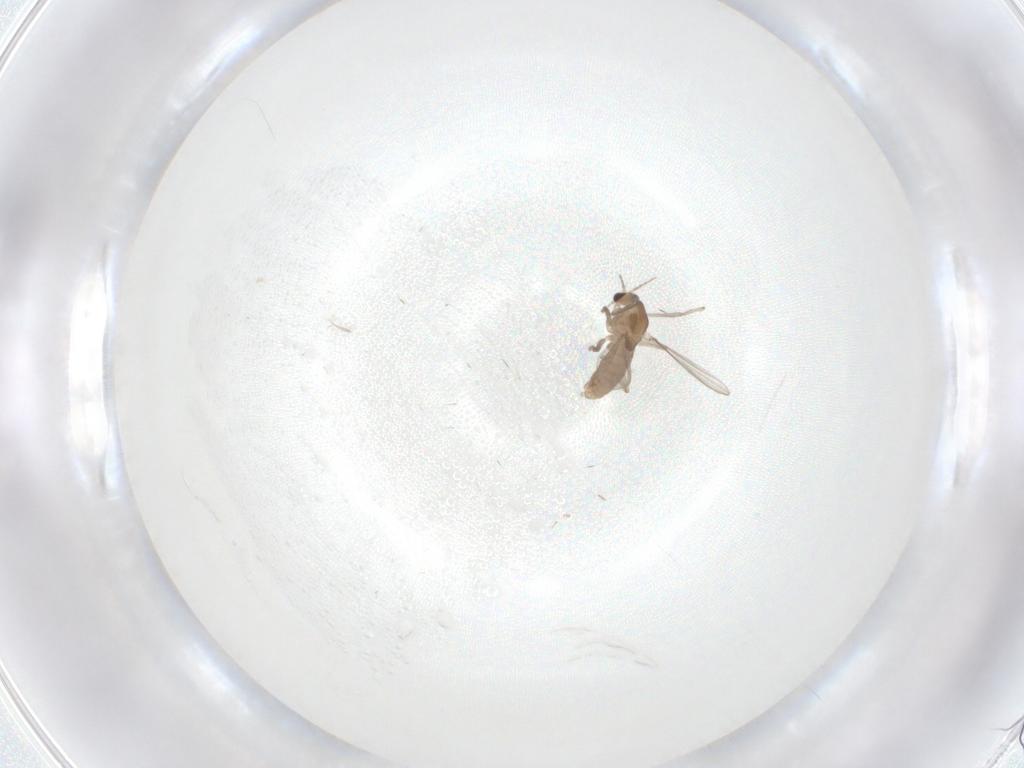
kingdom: Animalia
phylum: Arthropoda
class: Insecta
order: Diptera
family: Chironomidae
